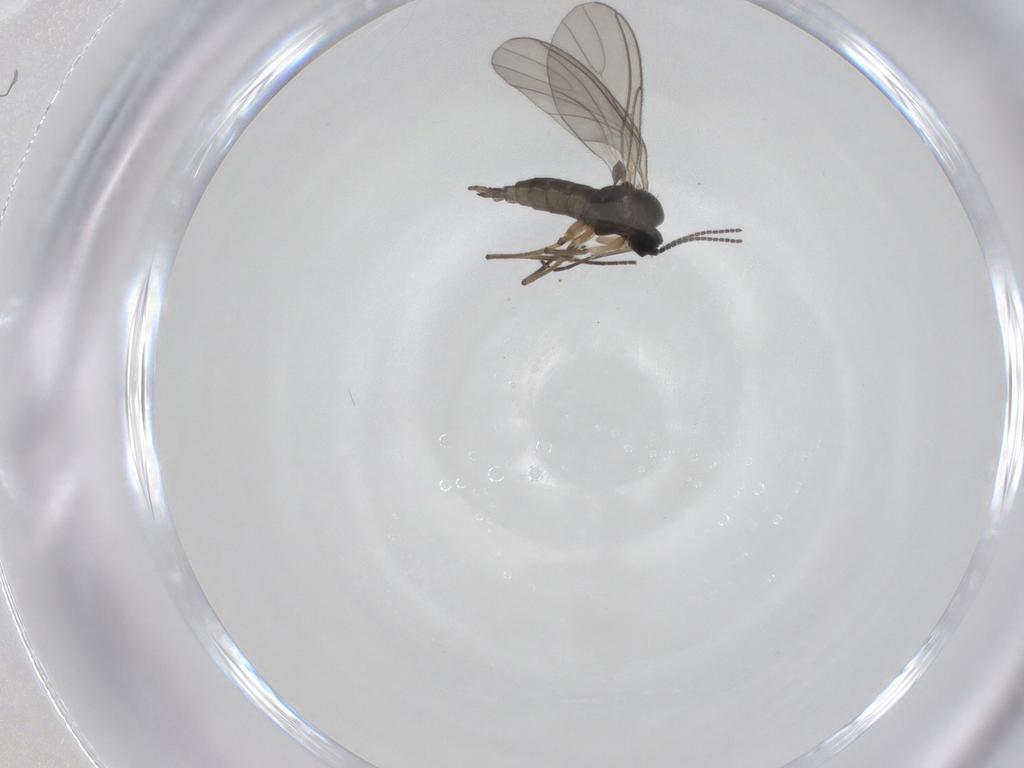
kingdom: Animalia
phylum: Arthropoda
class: Insecta
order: Diptera
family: Sciaridae
